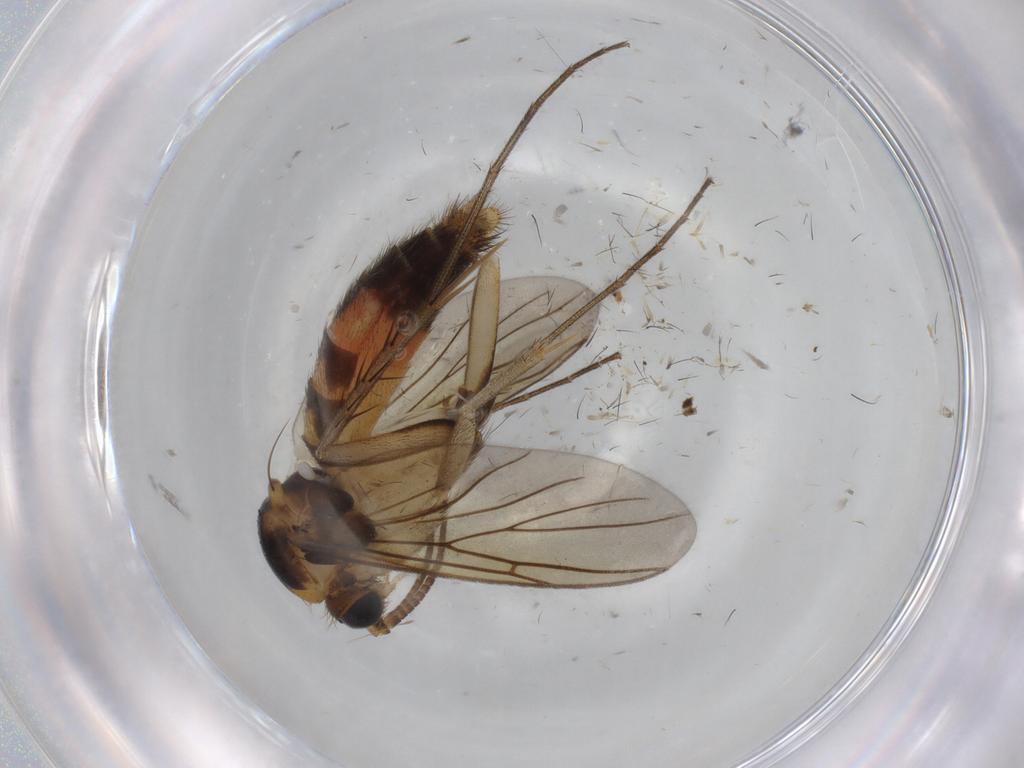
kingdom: Animalia
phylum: Arthropoda
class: Insecta
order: Diptera
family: Cecidomyiidae
